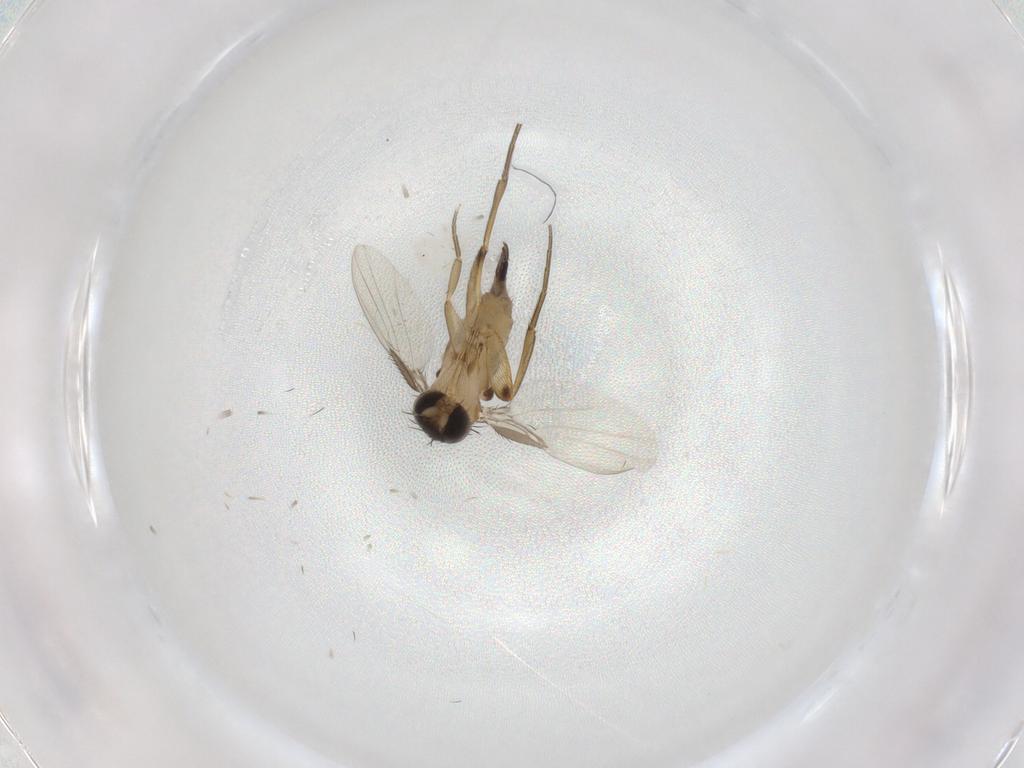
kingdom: Animalia
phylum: Arthropoda
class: Insecta
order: Diptera
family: Phoridae
